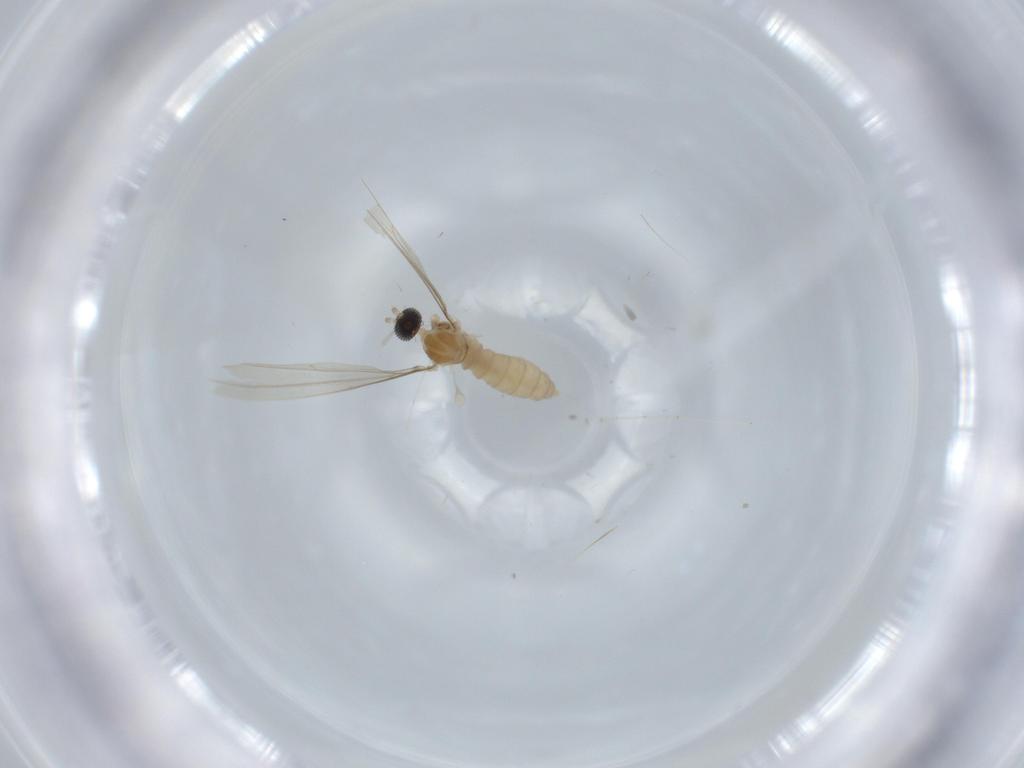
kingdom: Animalia
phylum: Arthropoda
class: Insecta
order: Diptera
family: Cecidomyiidae
